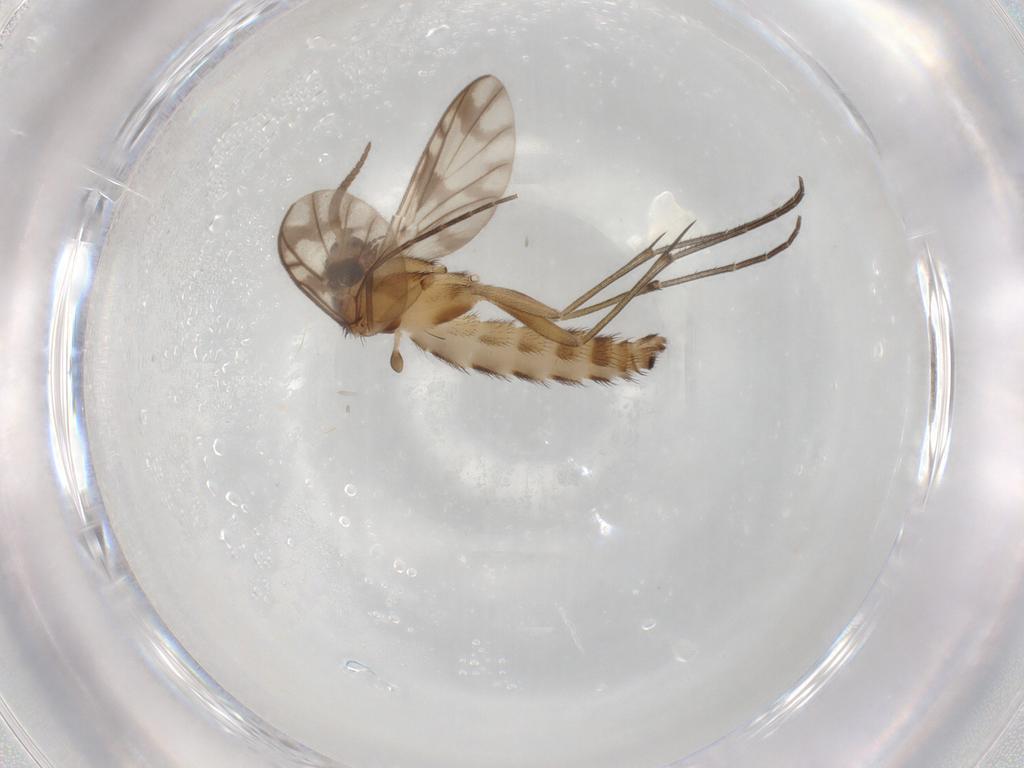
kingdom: Animalia
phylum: Arthropoda
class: Insecta
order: Diptera
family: Keroplatidae
